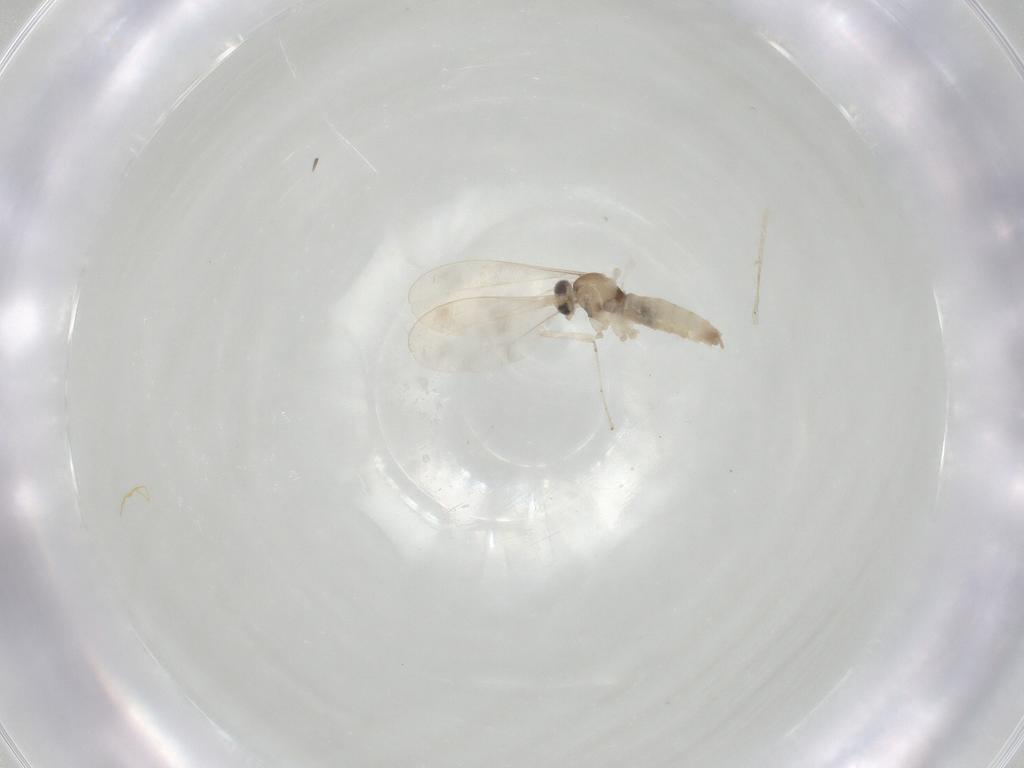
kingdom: Animalia
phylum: Arthropoda
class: Insecta
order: Diptera
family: Cecidomyiidae
